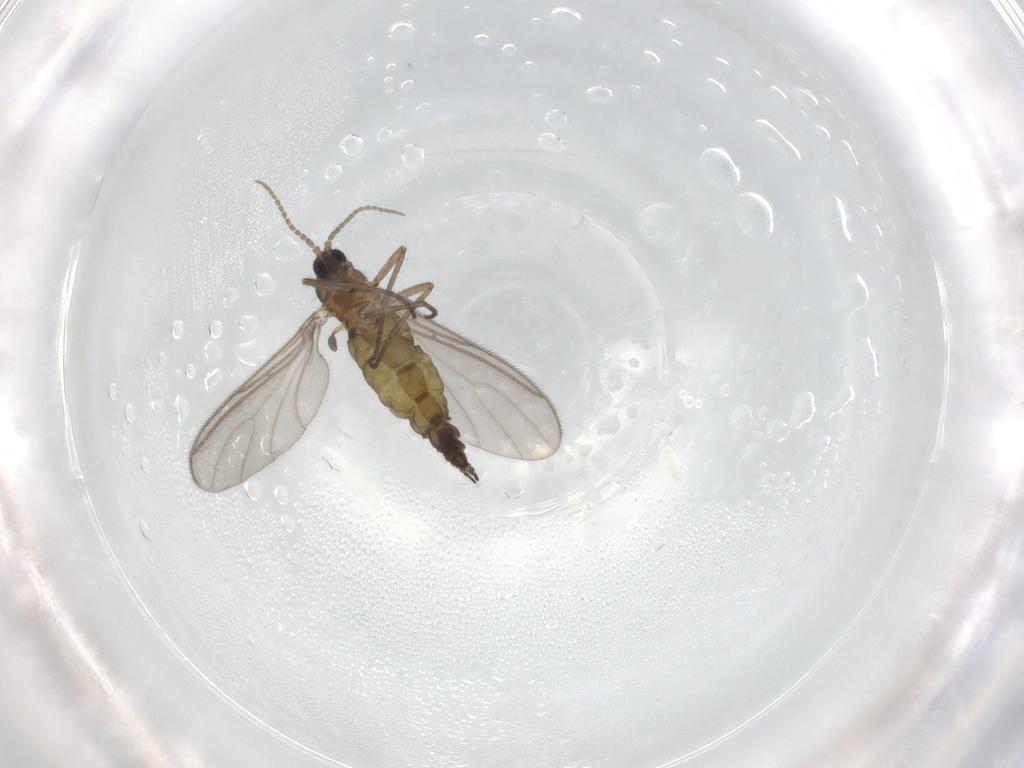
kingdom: Animalia
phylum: Arthropoda
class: Insecta
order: Diptera
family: Sciaridae
